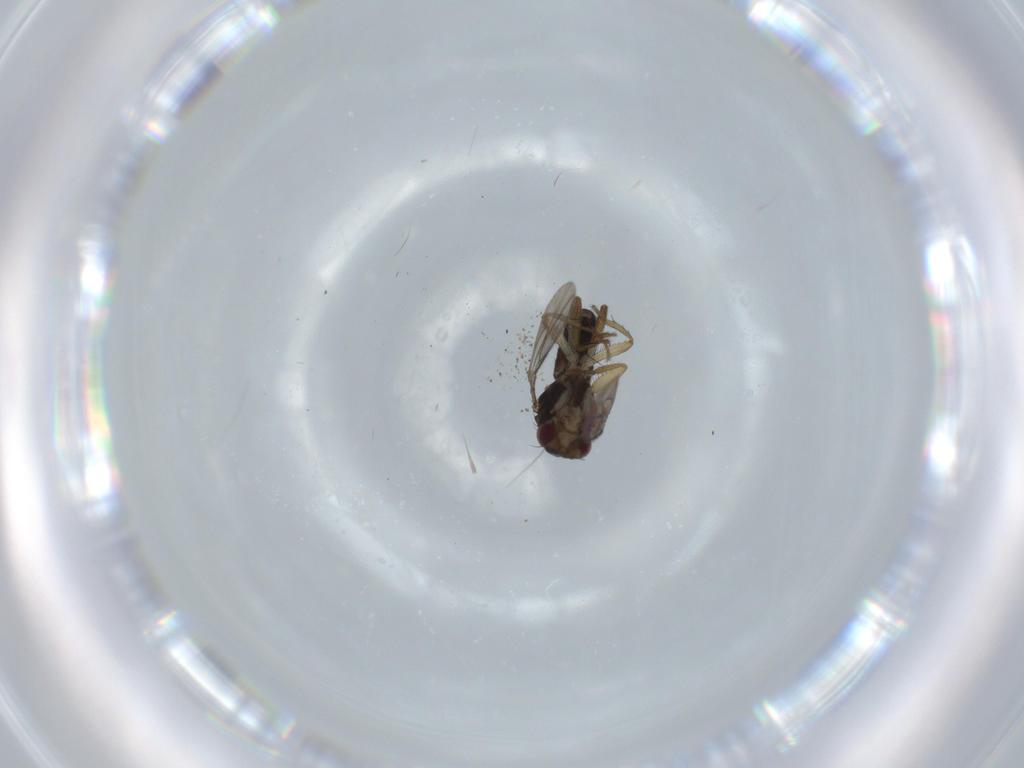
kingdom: Animalia
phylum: Arthropoda
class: Insecta
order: Diptera
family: Sphaeroceridae
